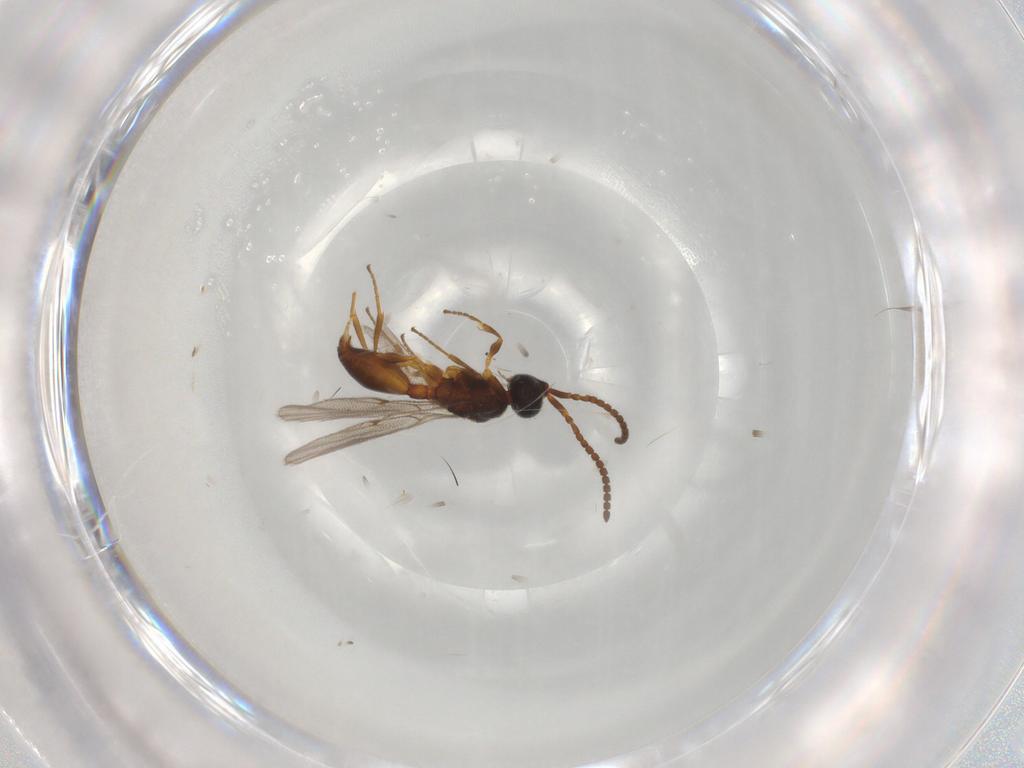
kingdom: Animalia
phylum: Arthropoda
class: Insecta
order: Hymenoptera
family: Diapriidae
